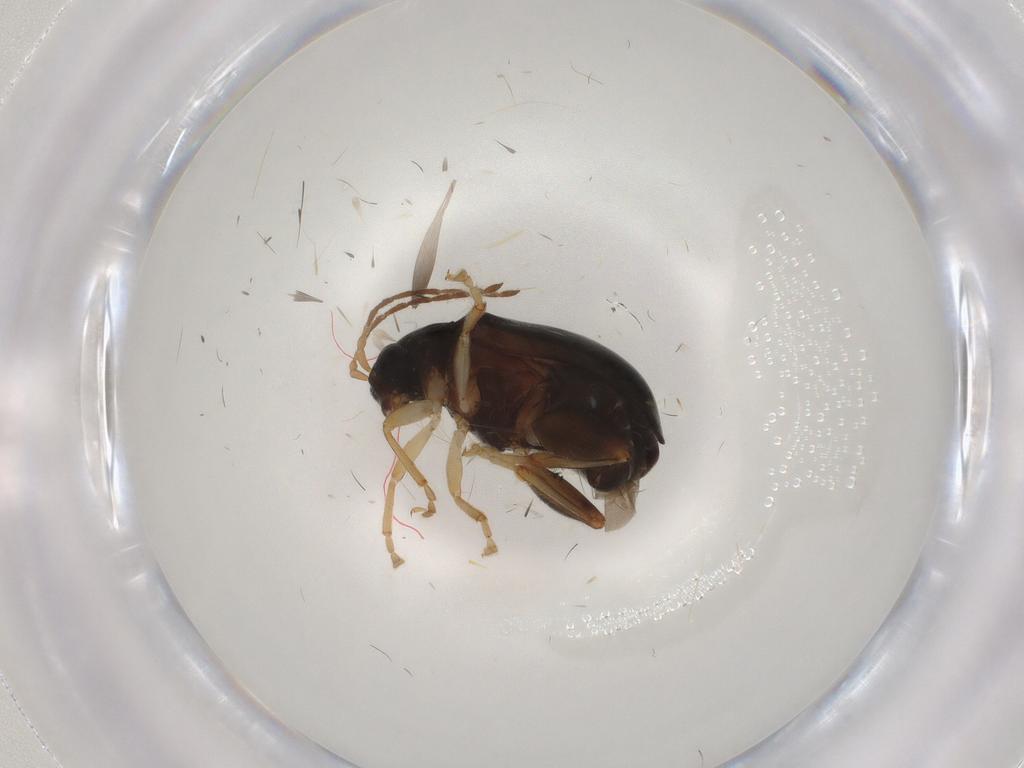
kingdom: Animalia
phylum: Arthropoda
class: Insecta
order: Coleoptera
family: Chrysomelidae
